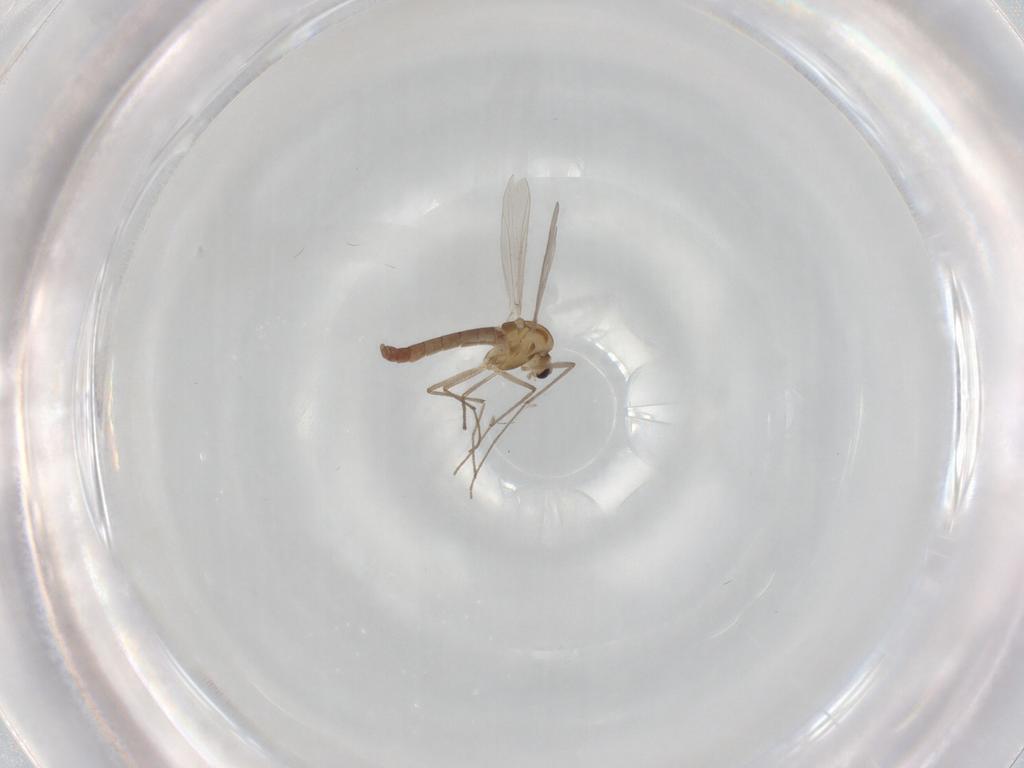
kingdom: Animalia
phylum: Arthropoda
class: Insecta
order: Diptera
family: Chironomidae
